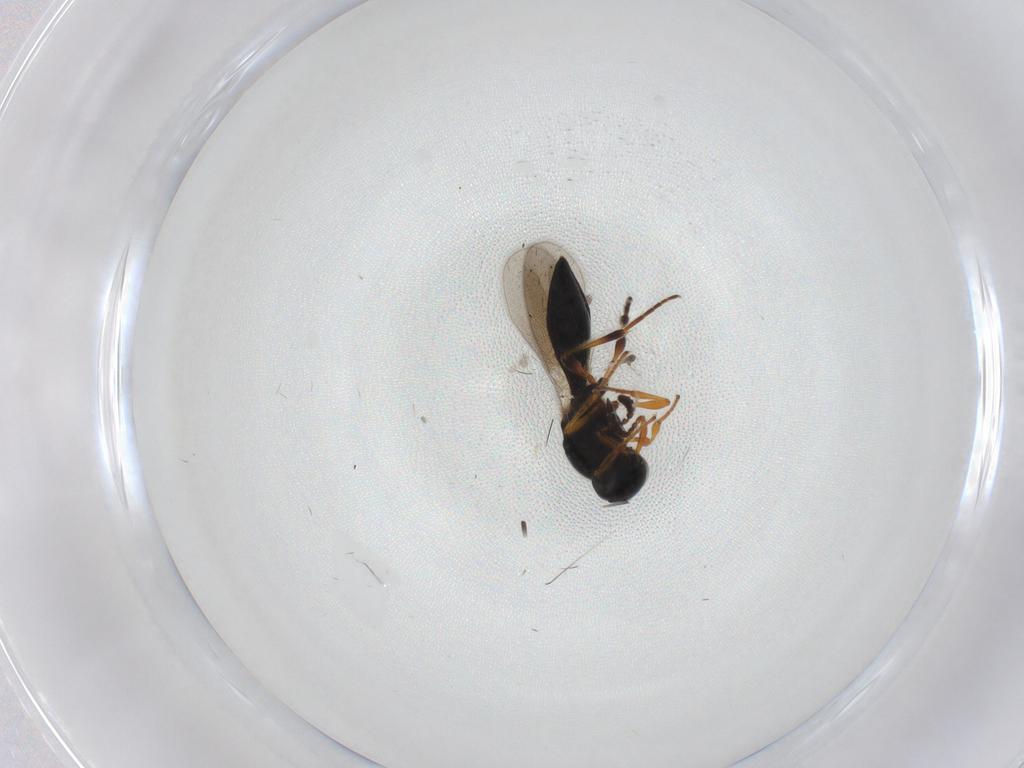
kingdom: Animalia
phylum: Arthropoda
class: Insecta
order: Hymenoptera
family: Platygastridae
